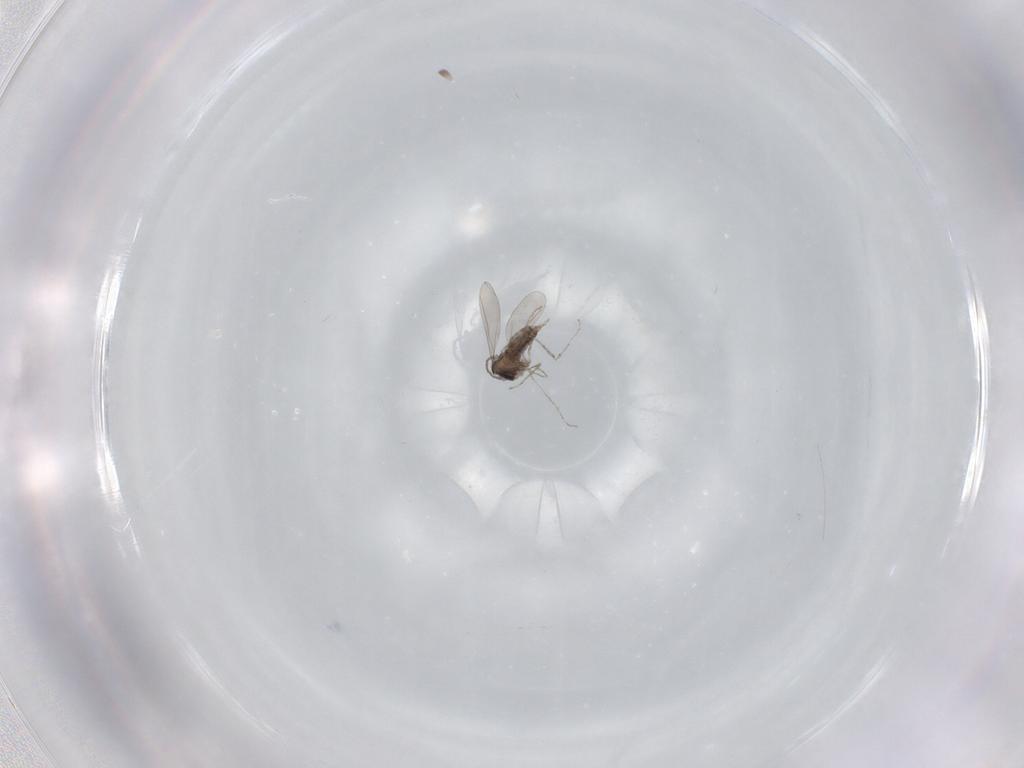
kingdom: Animalia
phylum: Arthropoda
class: Insecta
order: Diptera
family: Cecidomyiidae
